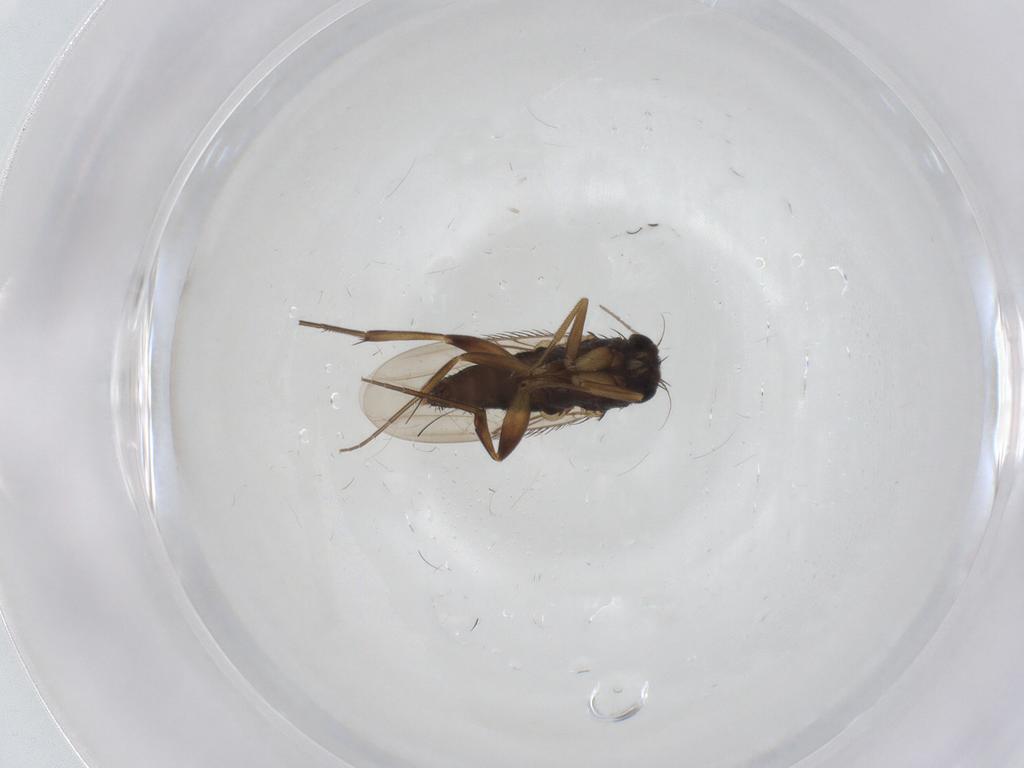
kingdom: Animalia
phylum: Arthropoda
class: Insecta
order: Diptera
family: Phoridae
